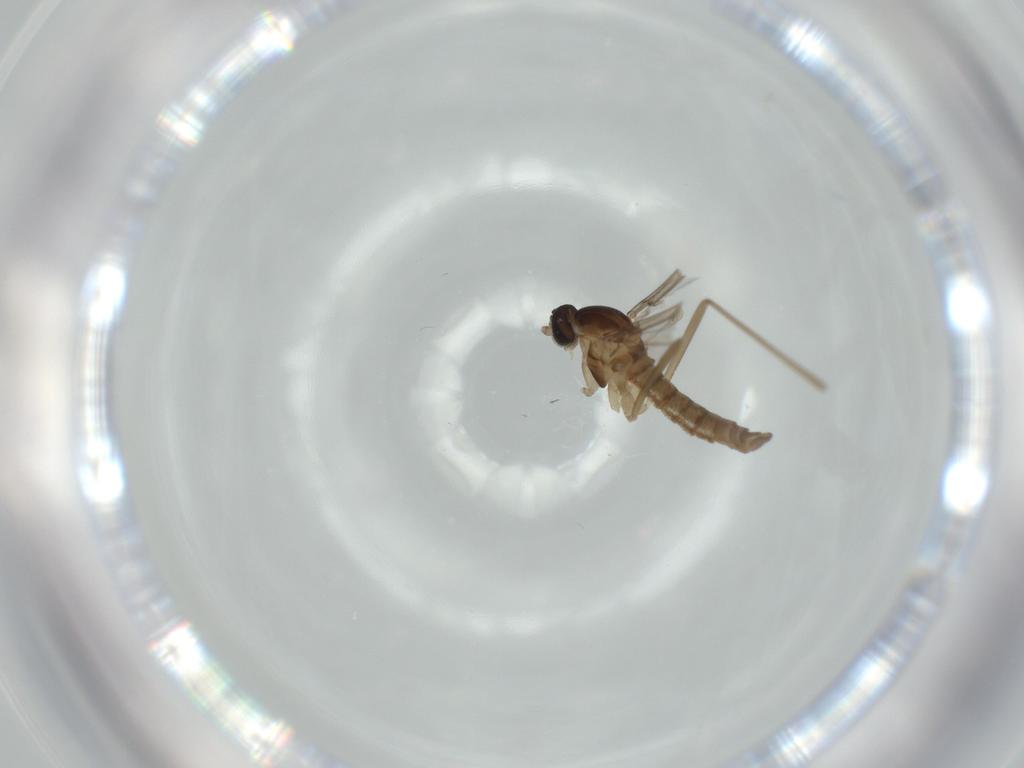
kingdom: Animalia
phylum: Arthropoda
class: Insecta
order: Diptera
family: Cecidomyiidae
